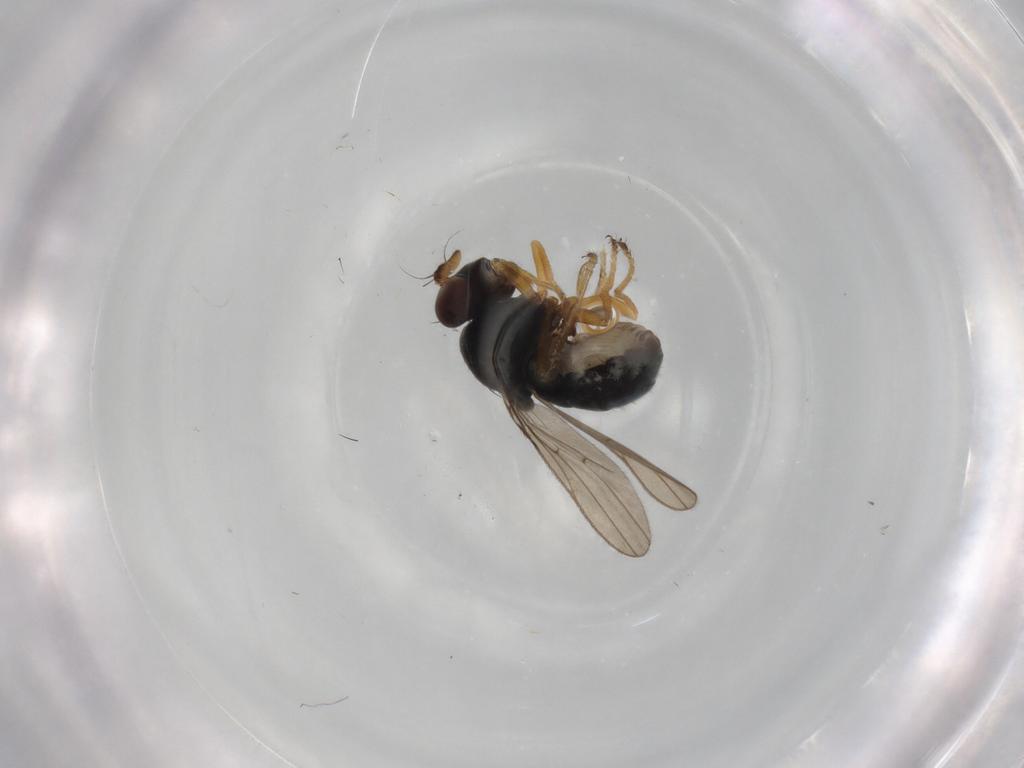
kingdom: Animalia
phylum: Arthropoda
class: Insecta
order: Diptera
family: Ephydridae
